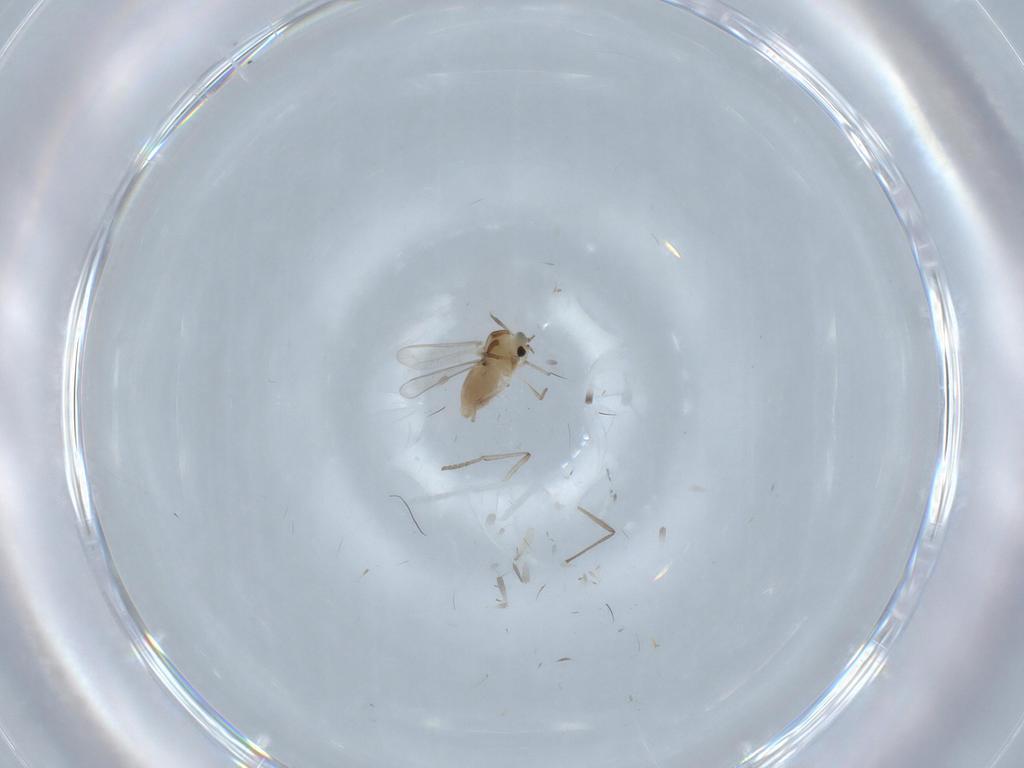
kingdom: Animalia
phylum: Arthropoda
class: Insecta
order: Diptera
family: Chironomidae
